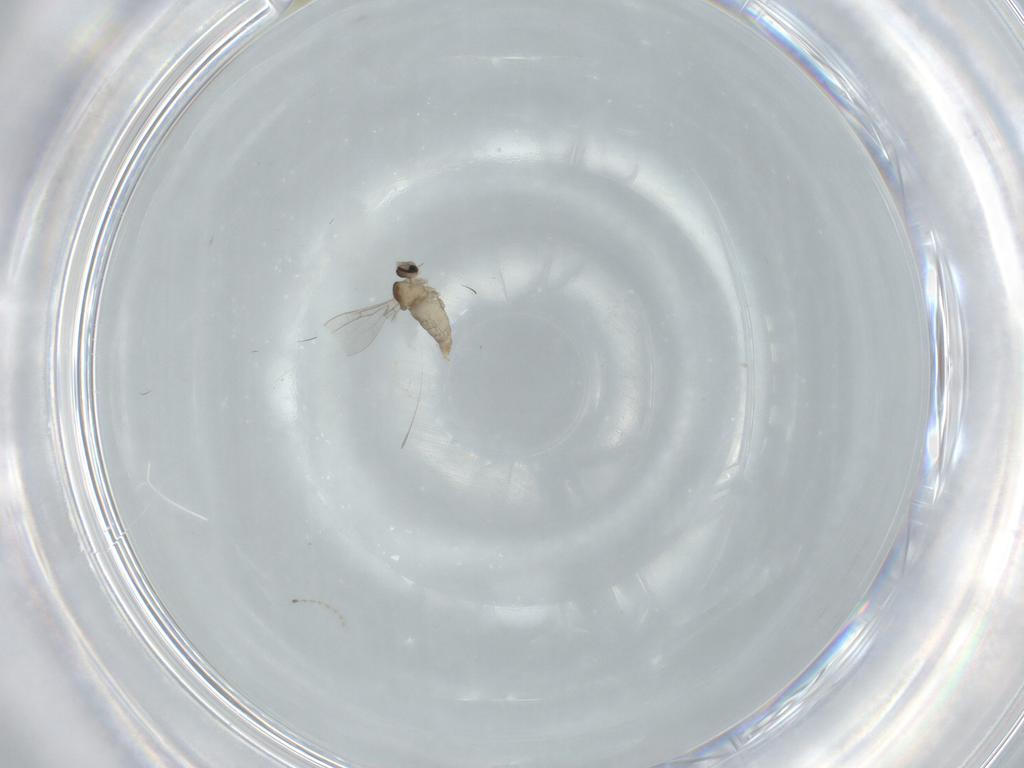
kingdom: Animalia
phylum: Arthropoda
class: Insecta
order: Diptera
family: Cecidomyiidae
